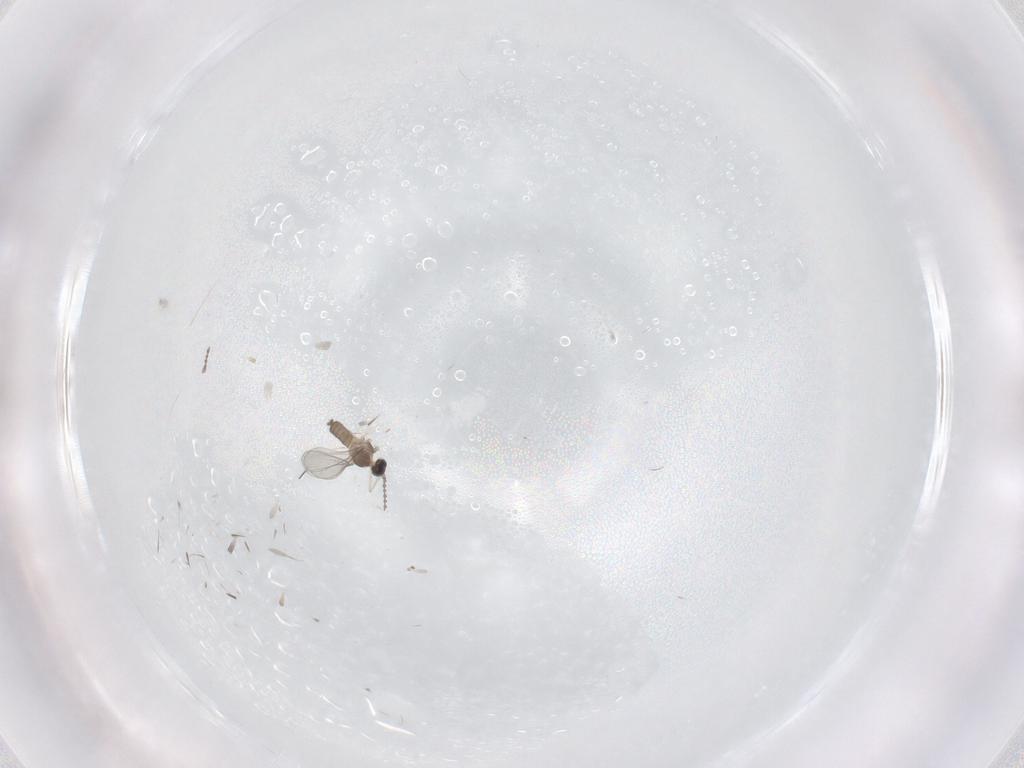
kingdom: Animalia
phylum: Arthropoda
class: Insecta
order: Diptera
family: Cecidomyiidae
